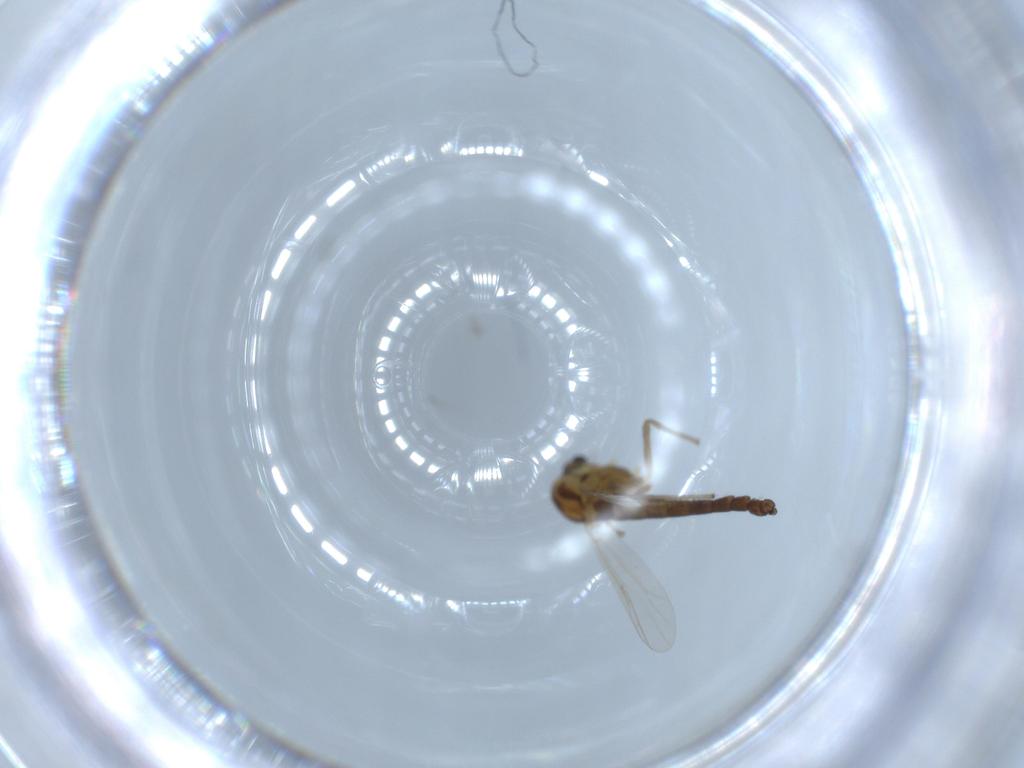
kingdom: Animalia
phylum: Arthropoda
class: Insecta
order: Diptera
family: Chironomidae
